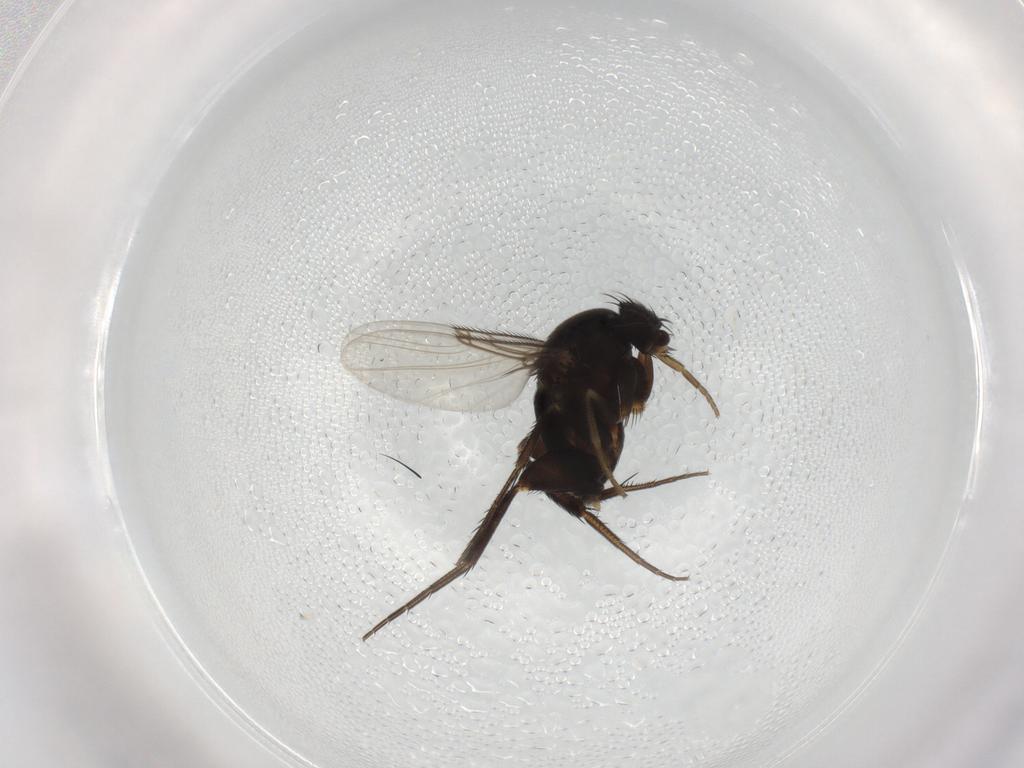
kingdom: Animalia
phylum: Arthropoda
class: Insecta
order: Diptera
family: Phoridae
